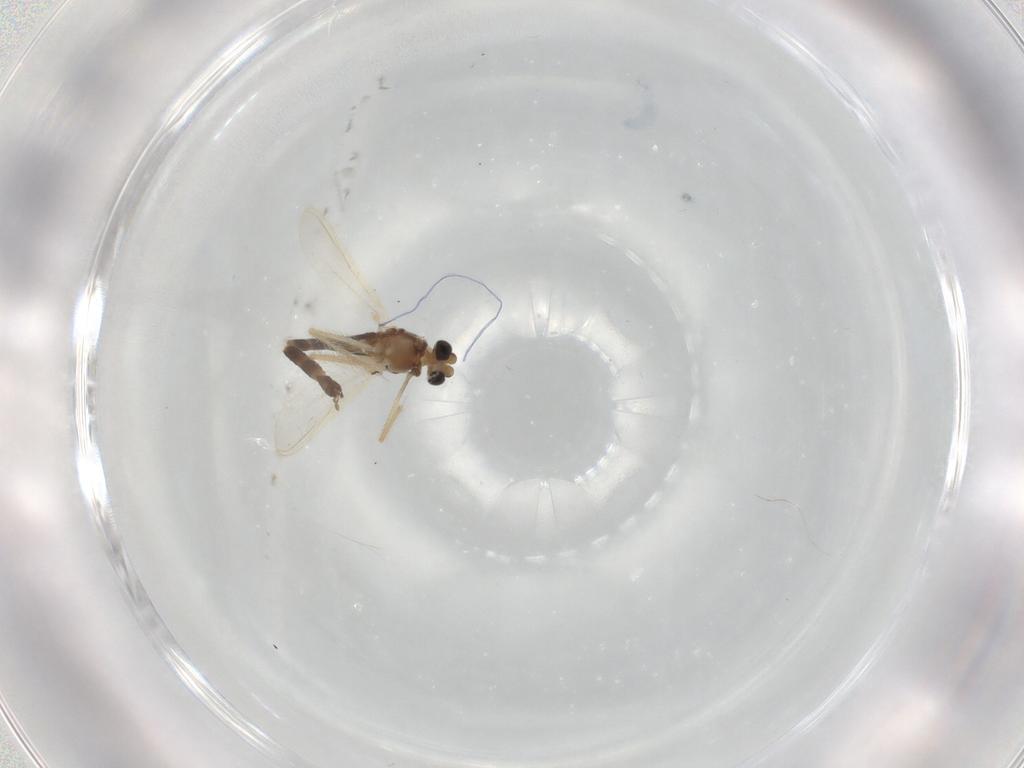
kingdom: Animalia
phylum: Arthropoda
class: Insecta
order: Diptera
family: Chironomidae
